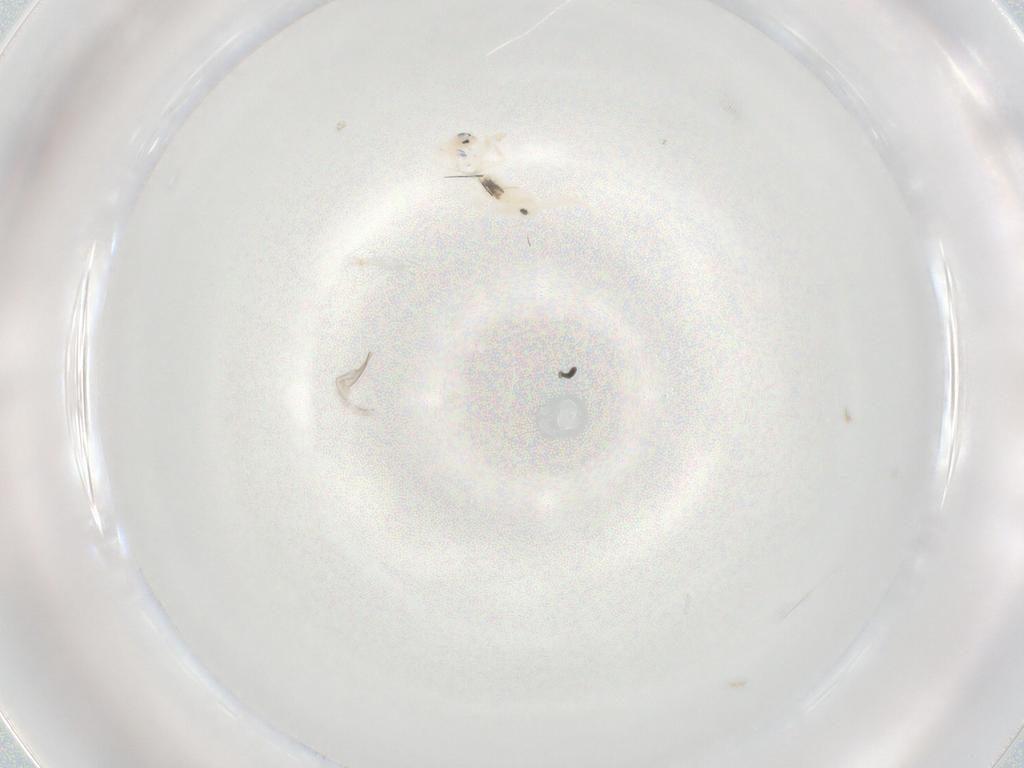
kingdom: Animalia
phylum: Arthropoda
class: Collembola
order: Entomobryomorpha
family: Entomobryidae
